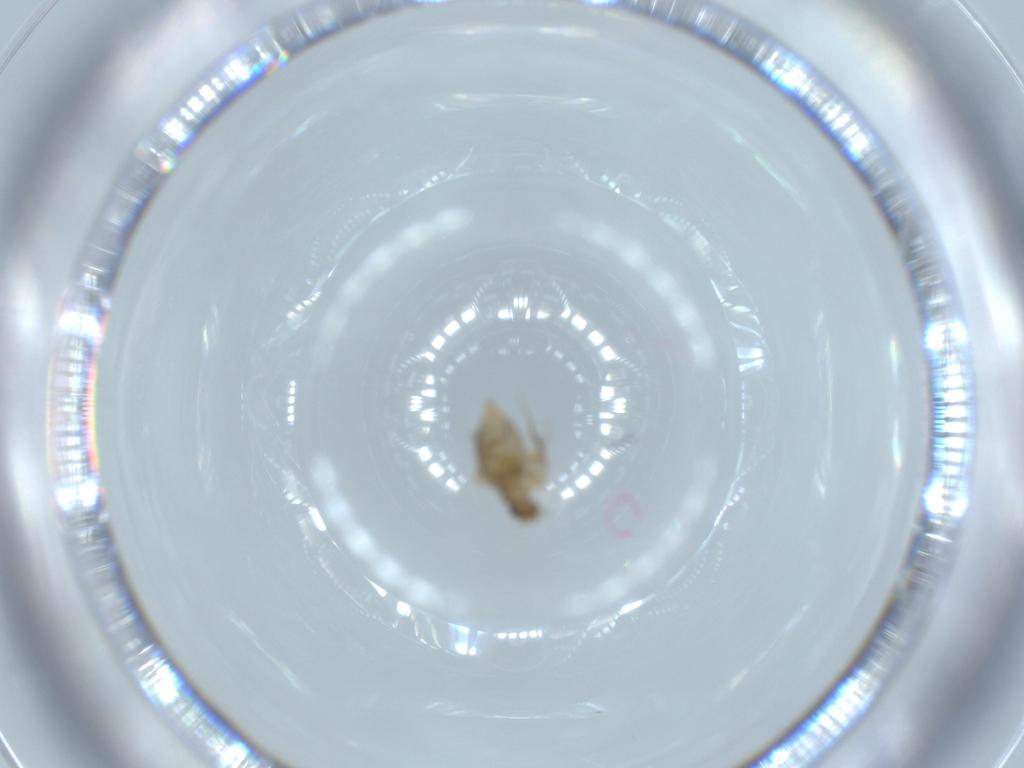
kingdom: Animalia
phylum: Arthropoda
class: Insecta
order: Diptera
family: Phoridae
